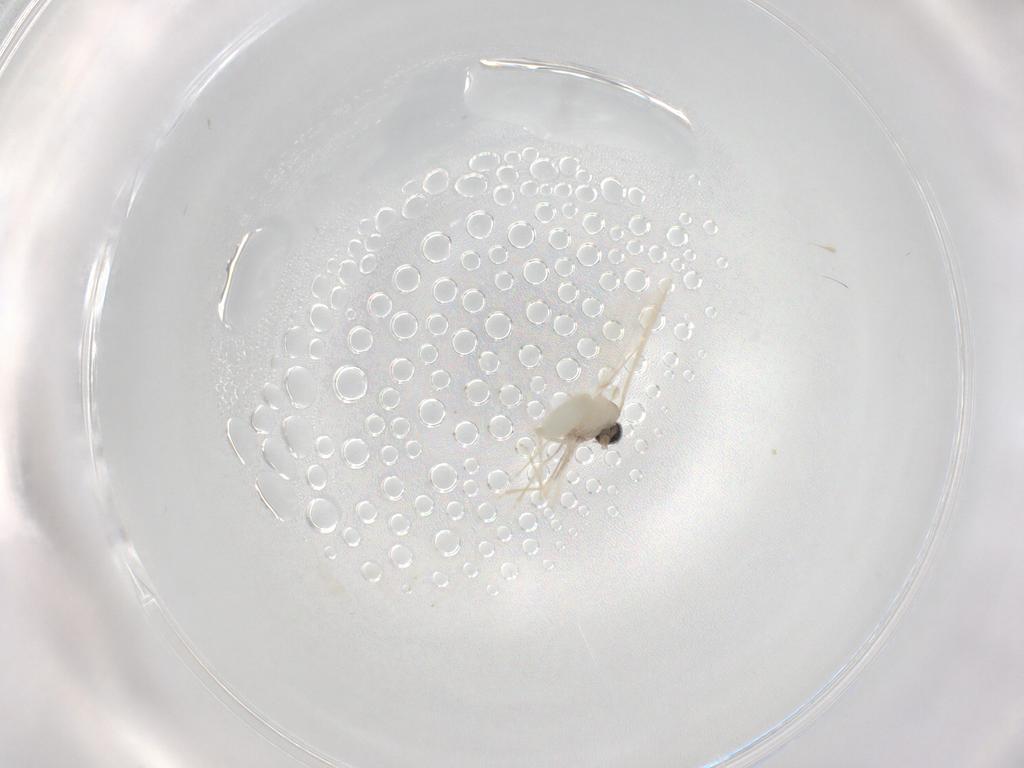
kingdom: Animalia
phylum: Arthropoda
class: Insecta
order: Diptera
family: Cecidomyiidae
